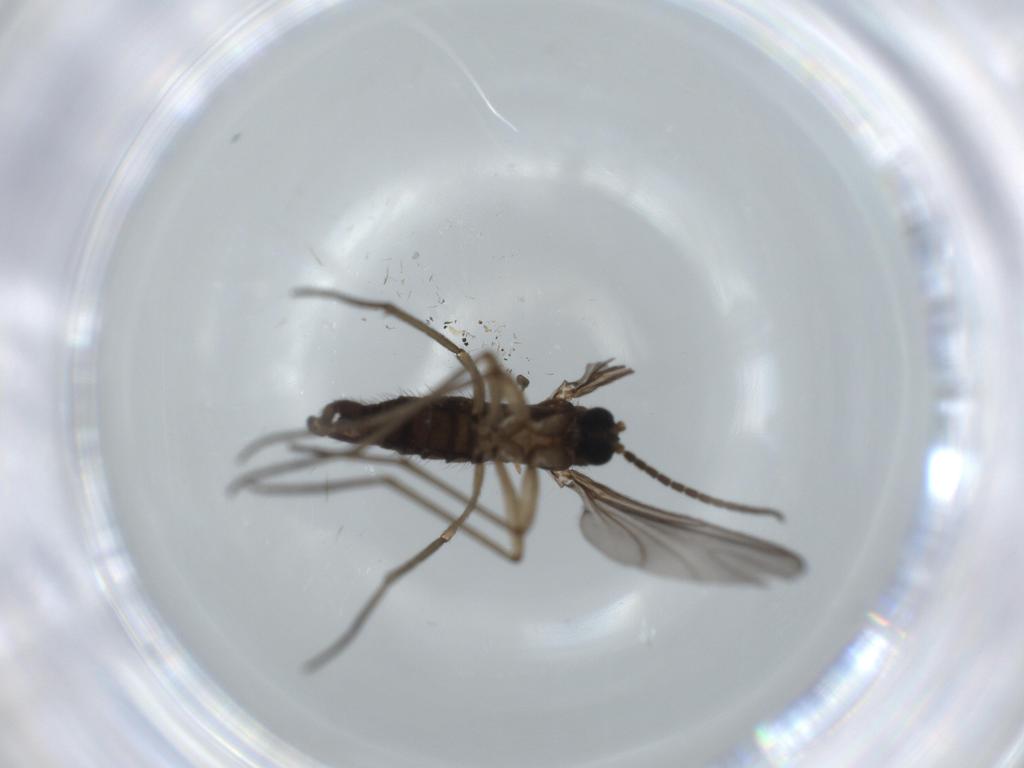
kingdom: Animalia
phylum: Arthropoda
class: Insecta
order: Diptera
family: Sciaridae
